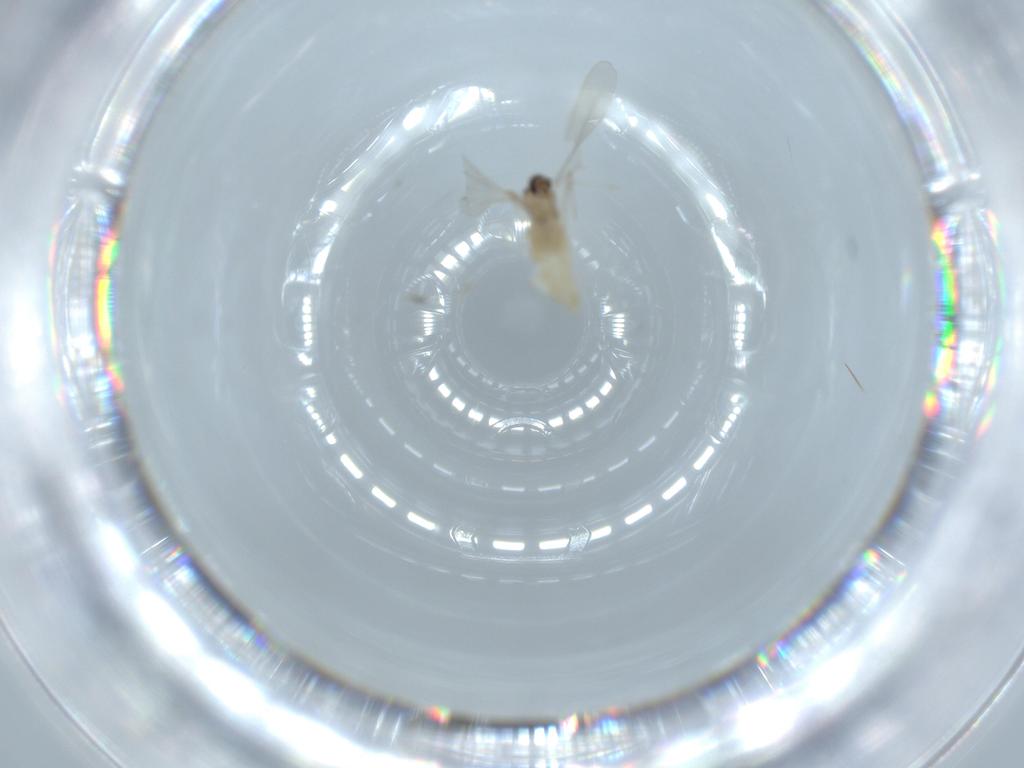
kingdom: Animalia
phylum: Arthropoda
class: Insecta
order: Diptera
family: Cecidomyiidae
